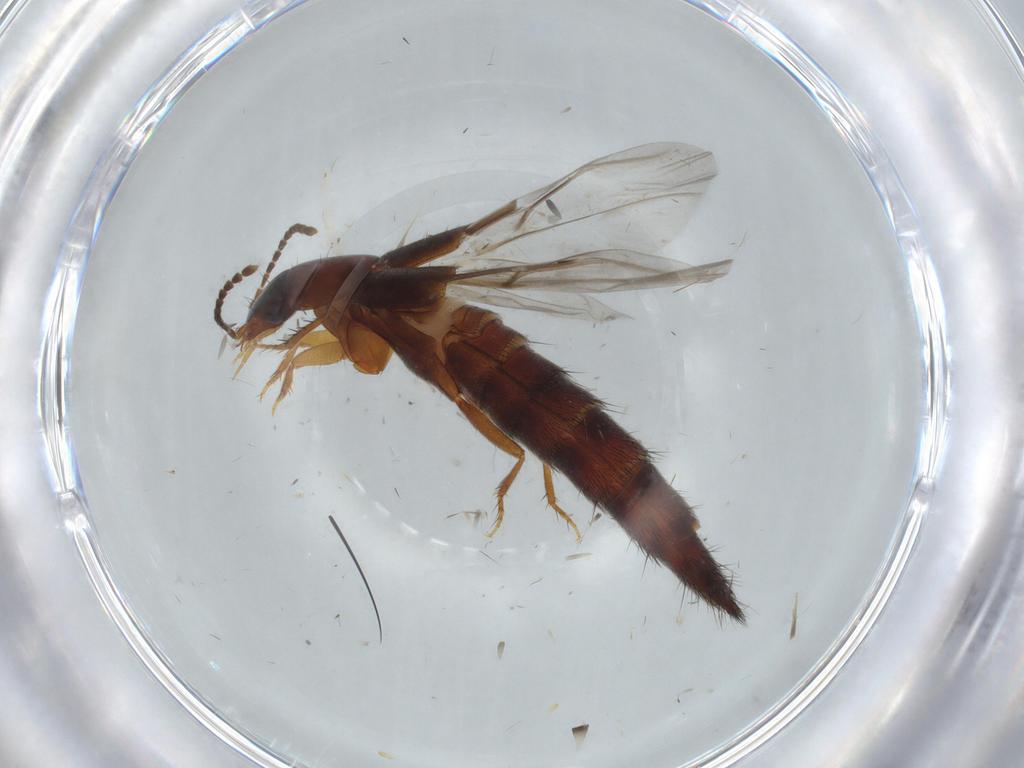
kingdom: Animalia
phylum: Arthropoda
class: Insecta
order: Coleoptera
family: Staphylinidae
